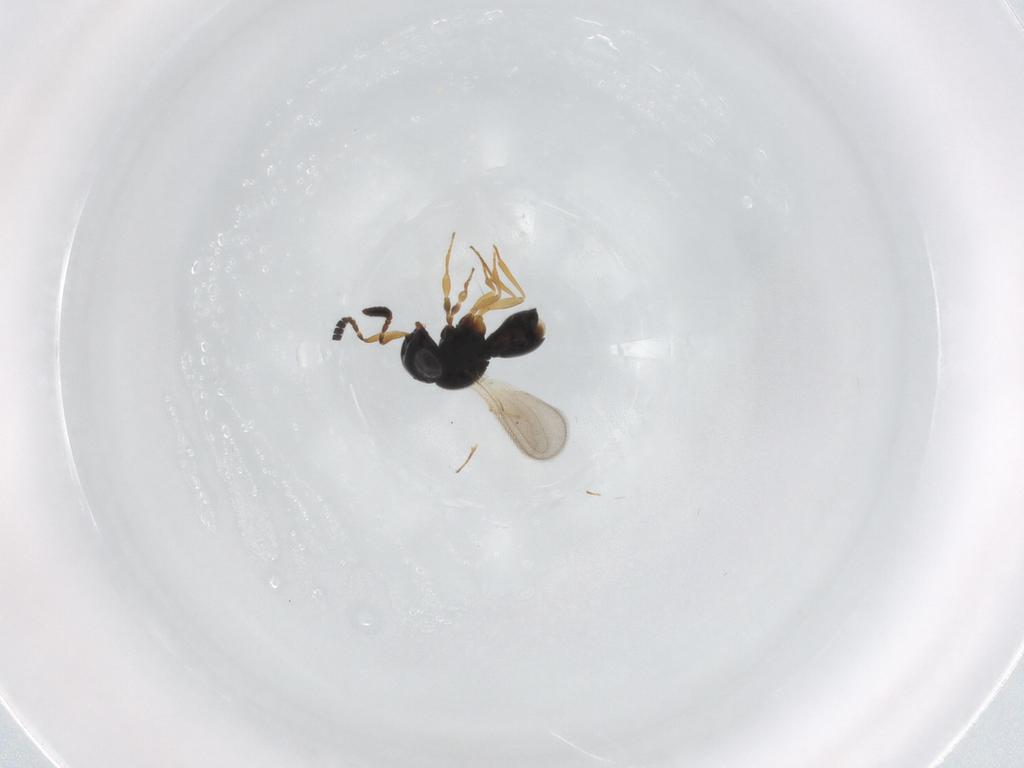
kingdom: Animalia
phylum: Arthropoda
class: Insecta
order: Hymenoptera
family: Scelionidae
